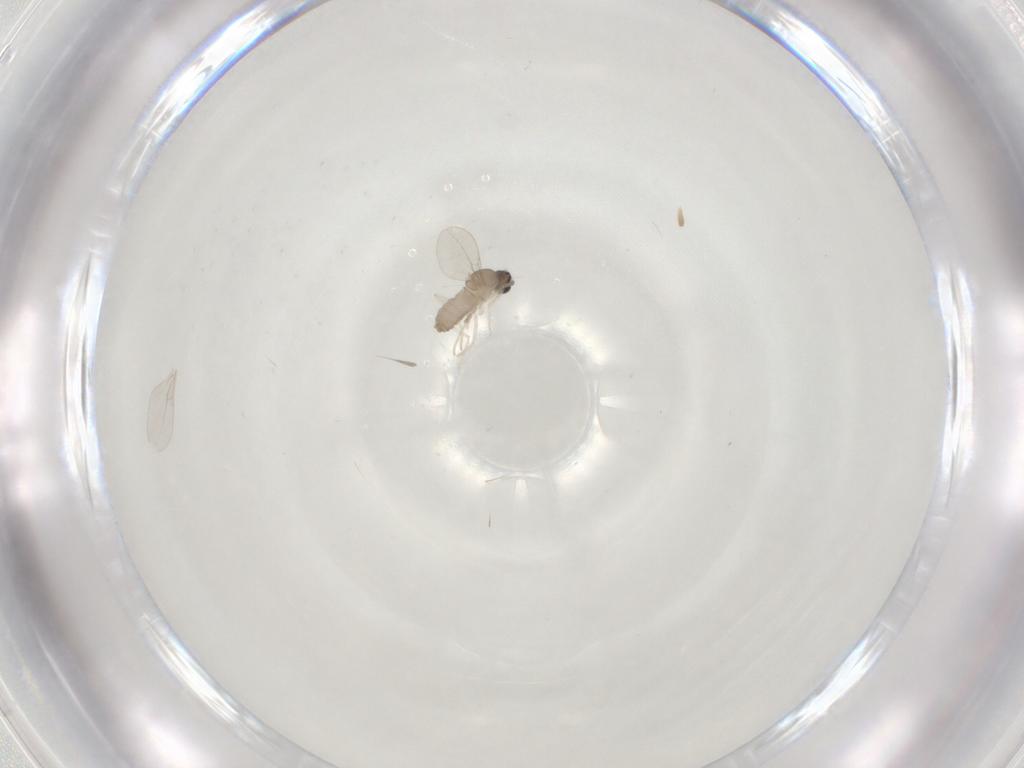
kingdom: Animalia
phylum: Arthropoda
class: Insecta
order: Diptera
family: Cecidomyiidae
